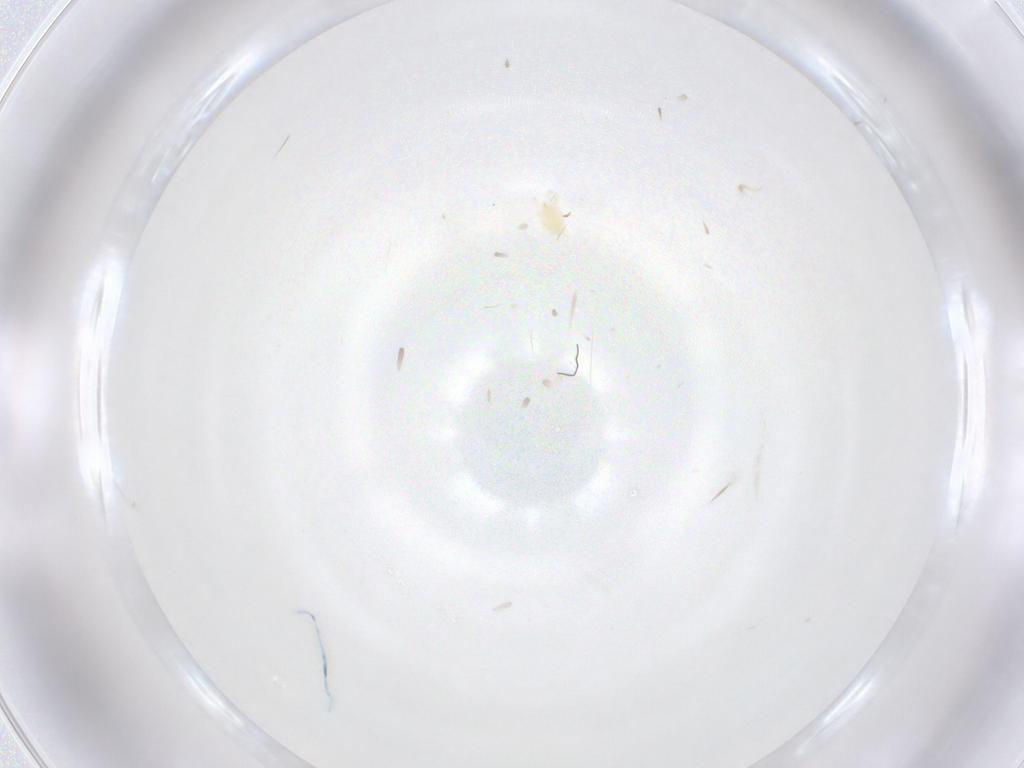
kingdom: Animalia
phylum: Arthropoda
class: Arachnida
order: Trombidiformes
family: Tetranychidae
